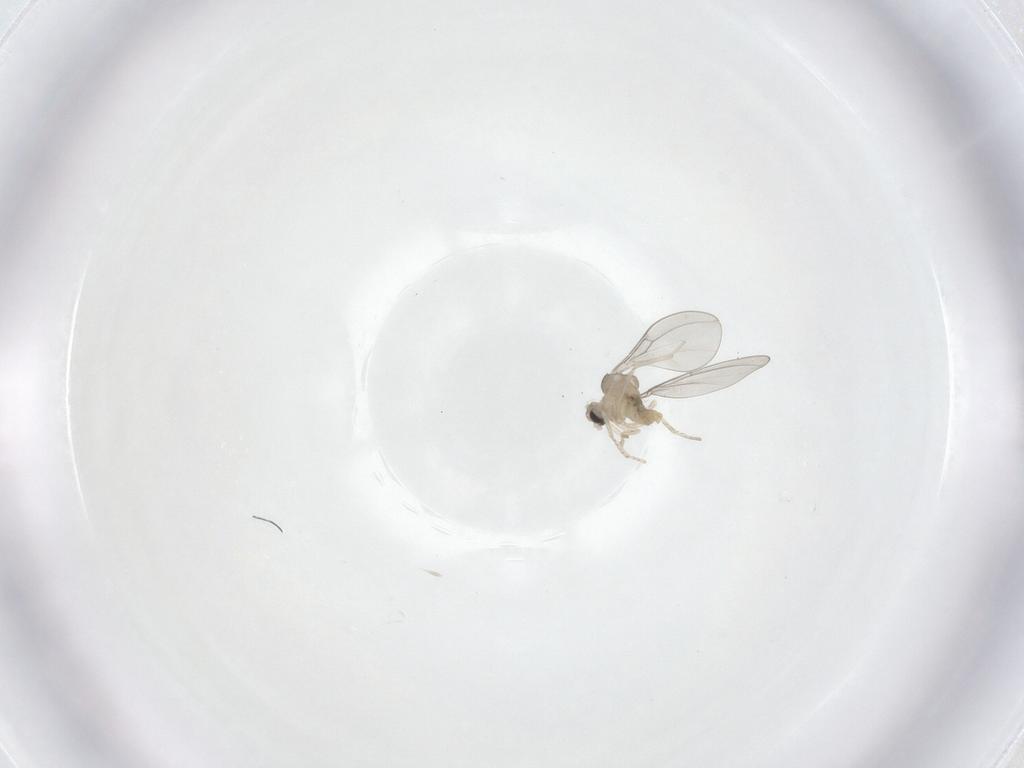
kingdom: Animalia
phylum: Arthropoda
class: Insecta
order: Diptera
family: Cecidomyiidae
